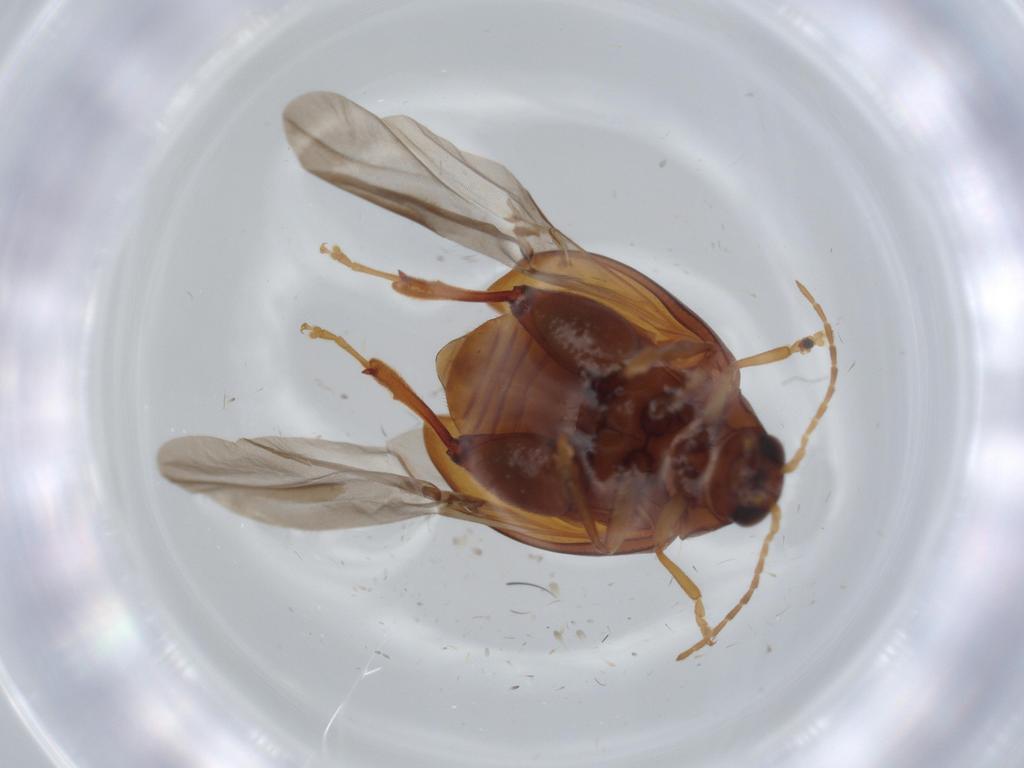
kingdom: Animalia
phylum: Arthropoda
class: Insecta
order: Coleoptera
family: Chrysomelidae
